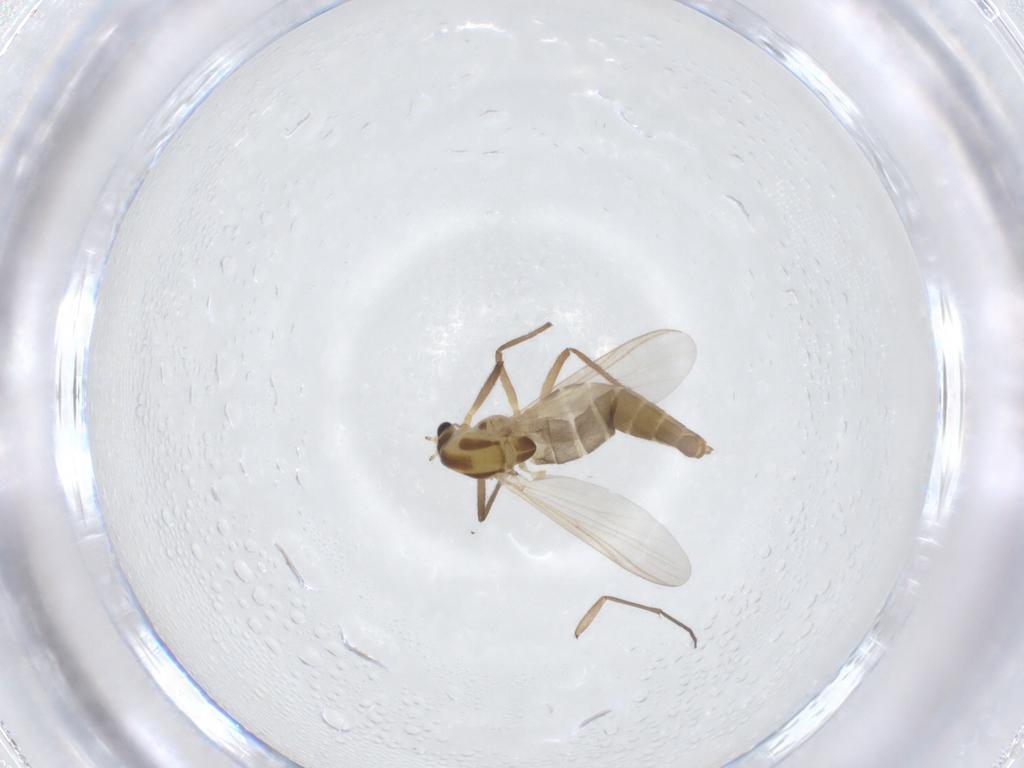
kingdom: Animalia
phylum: Arthropoda
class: Insecta
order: Diptera
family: Chironomidae
